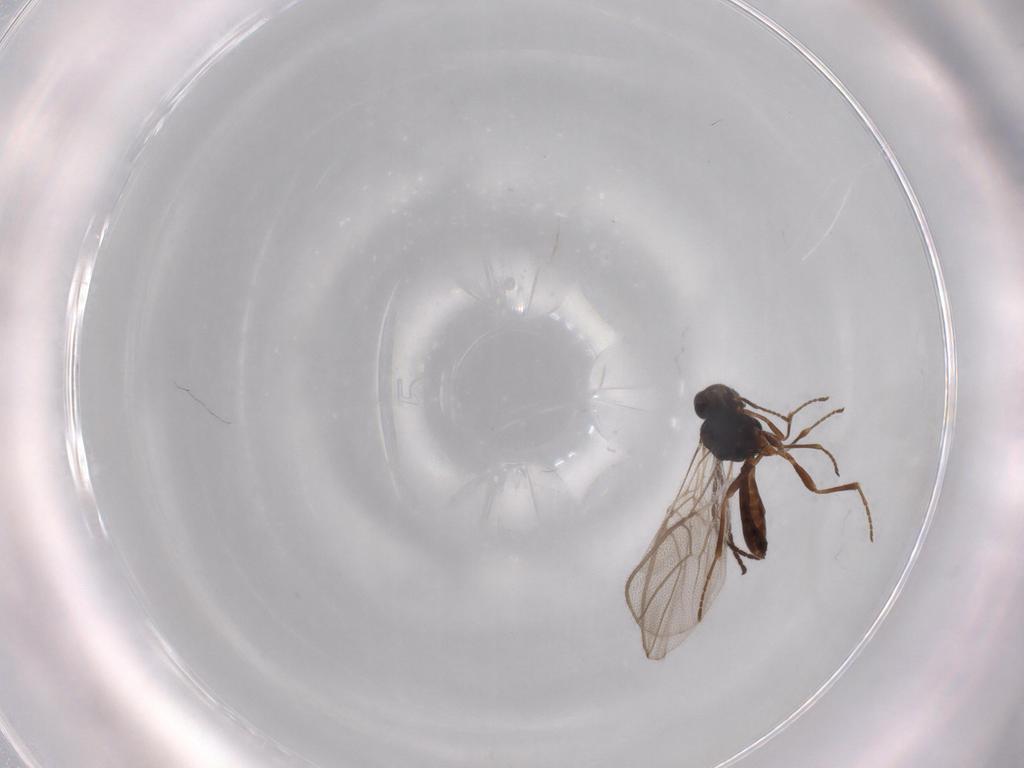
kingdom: Animalia
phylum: Arthropoda
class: Insecta
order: Hymenoptera
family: Braconidae
